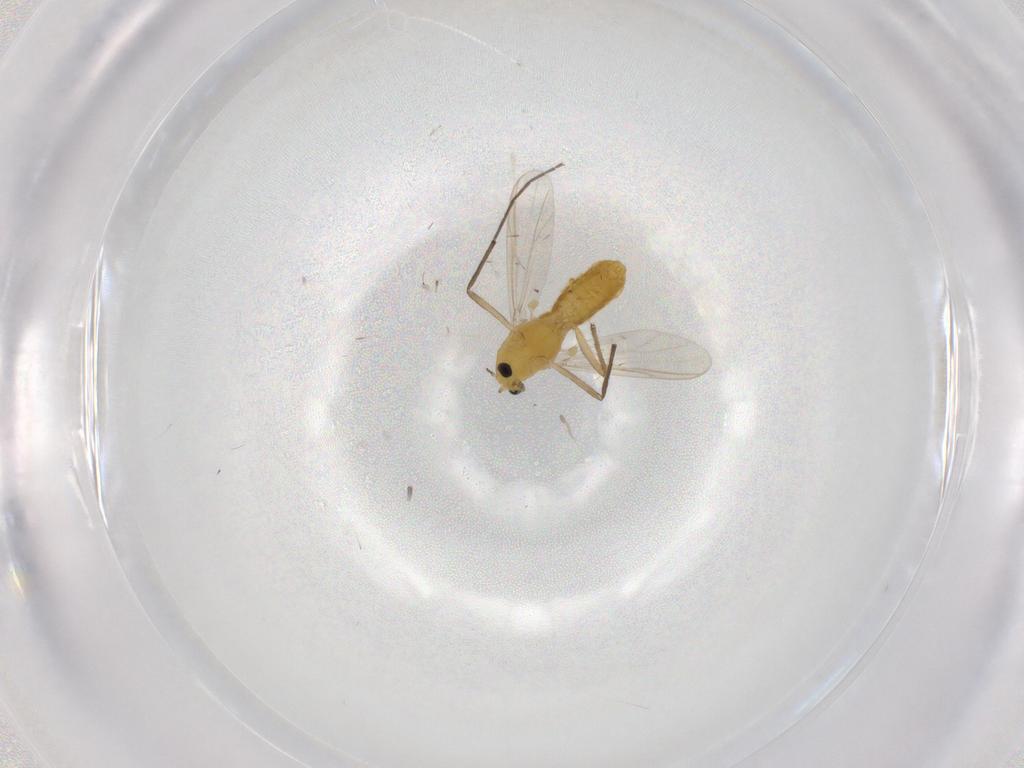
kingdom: Animalia
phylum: Arthropoda
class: Insecta
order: Diptera
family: Chironomidae
